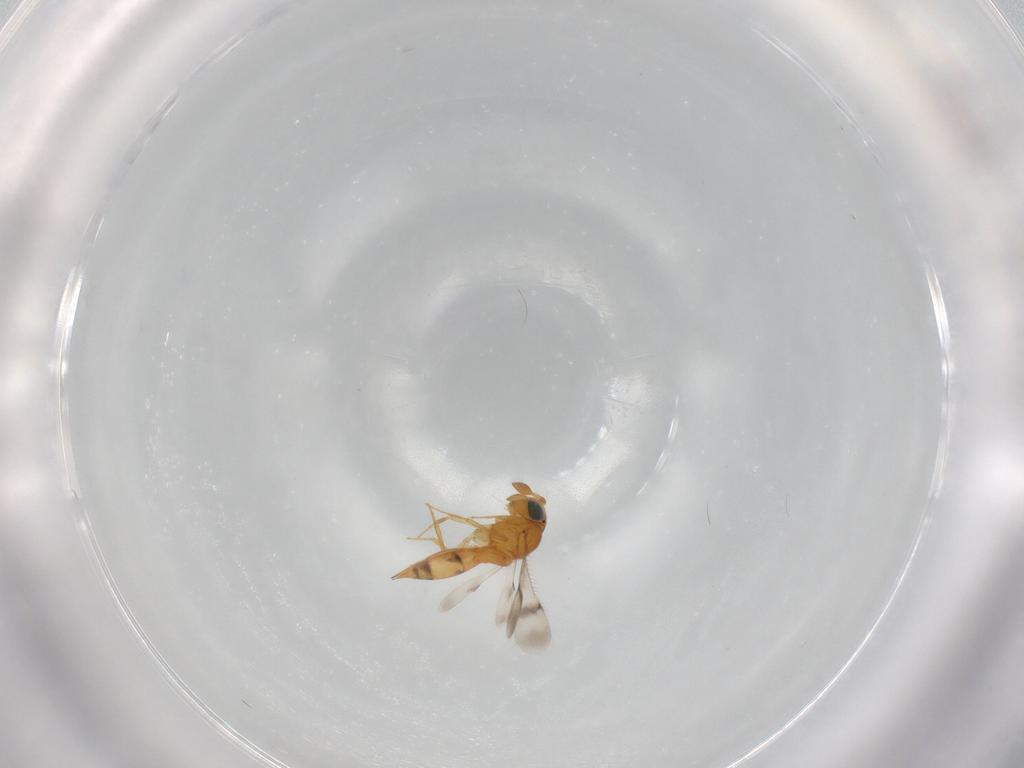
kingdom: Animalia
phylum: Arthropoda
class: Insecta
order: Hymenoptera
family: Scelionidae
